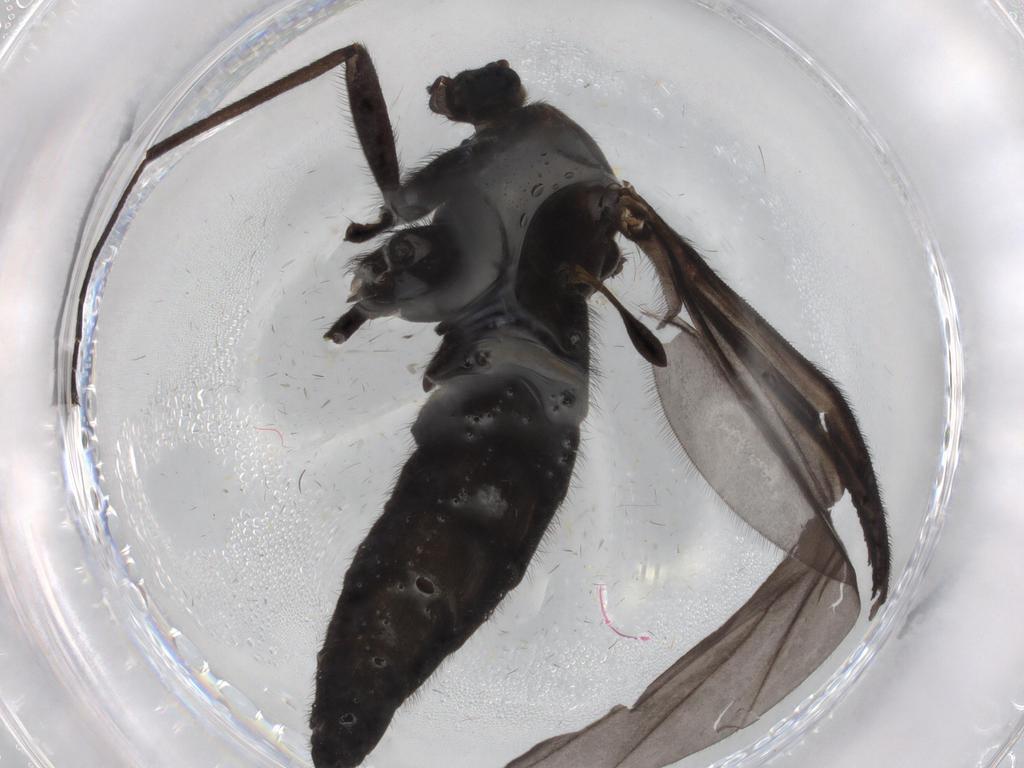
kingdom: Animalia
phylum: Arthropoda
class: Insecta
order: Diptera
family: Sciaridae
